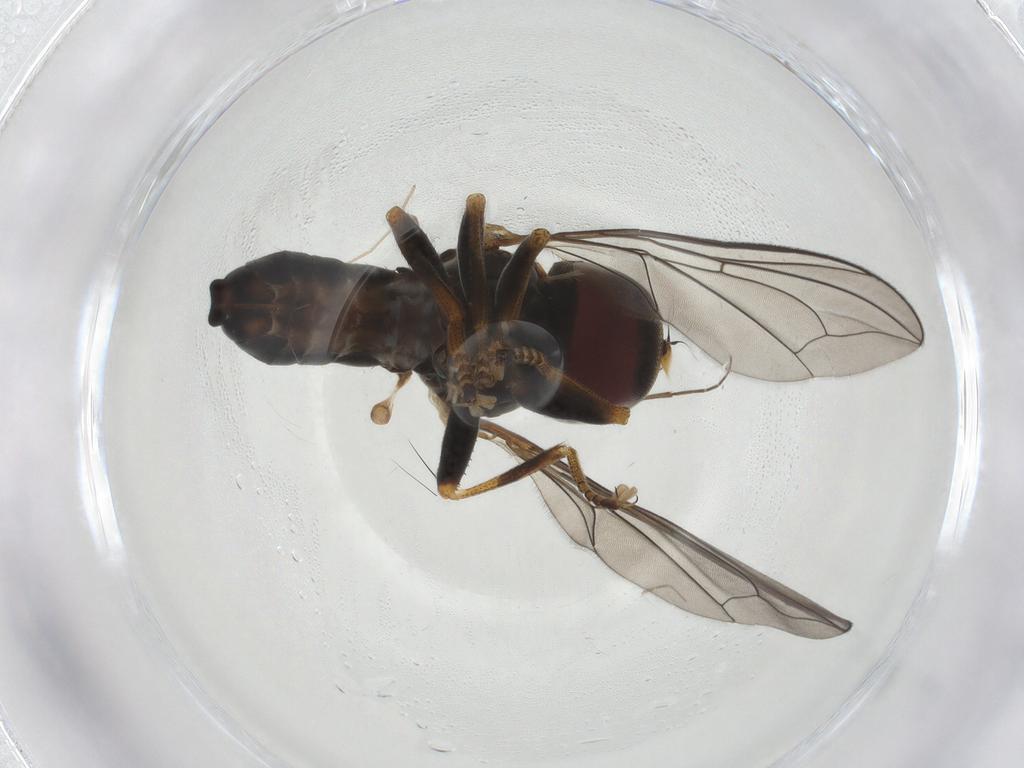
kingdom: Animalia
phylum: Arthropoda
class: Insecta
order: Diptera
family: Pipunculidae
